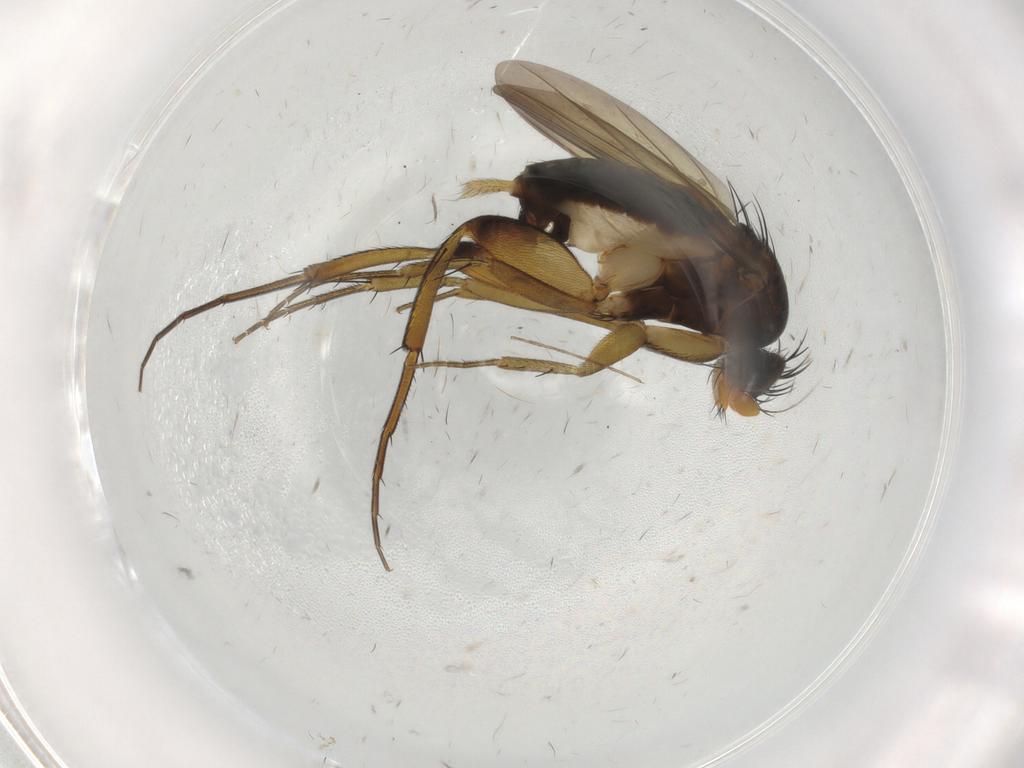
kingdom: Animalia
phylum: Arthropoda
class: Insecta
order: Diptera
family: Phoridae
